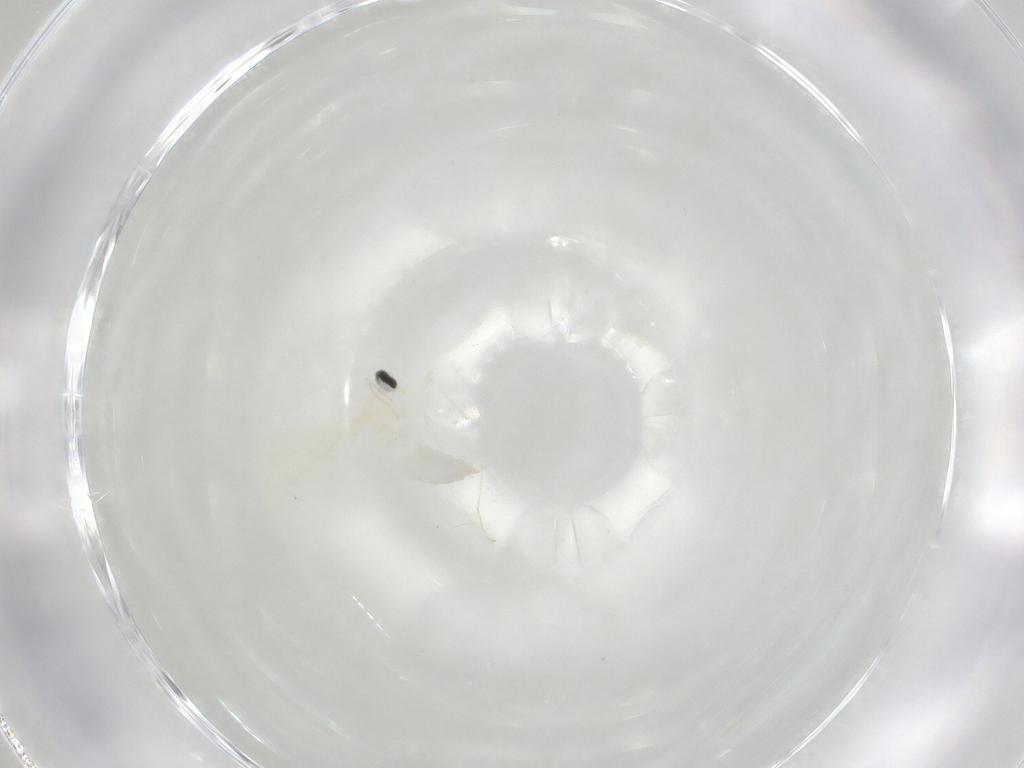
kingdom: Animalia
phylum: Arthropoda
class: Insecta
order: Diptera
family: Cecidomyiidae
